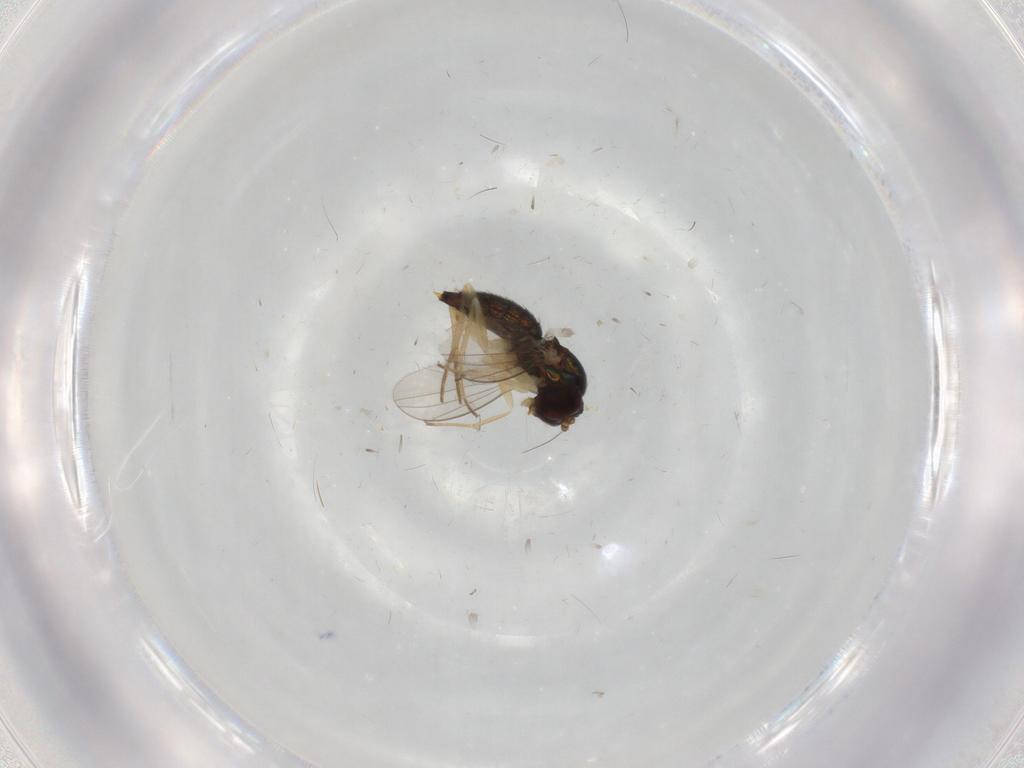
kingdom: Animalia
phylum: Arthropoda
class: Insecta
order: Diptera
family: Dolichopodidae
